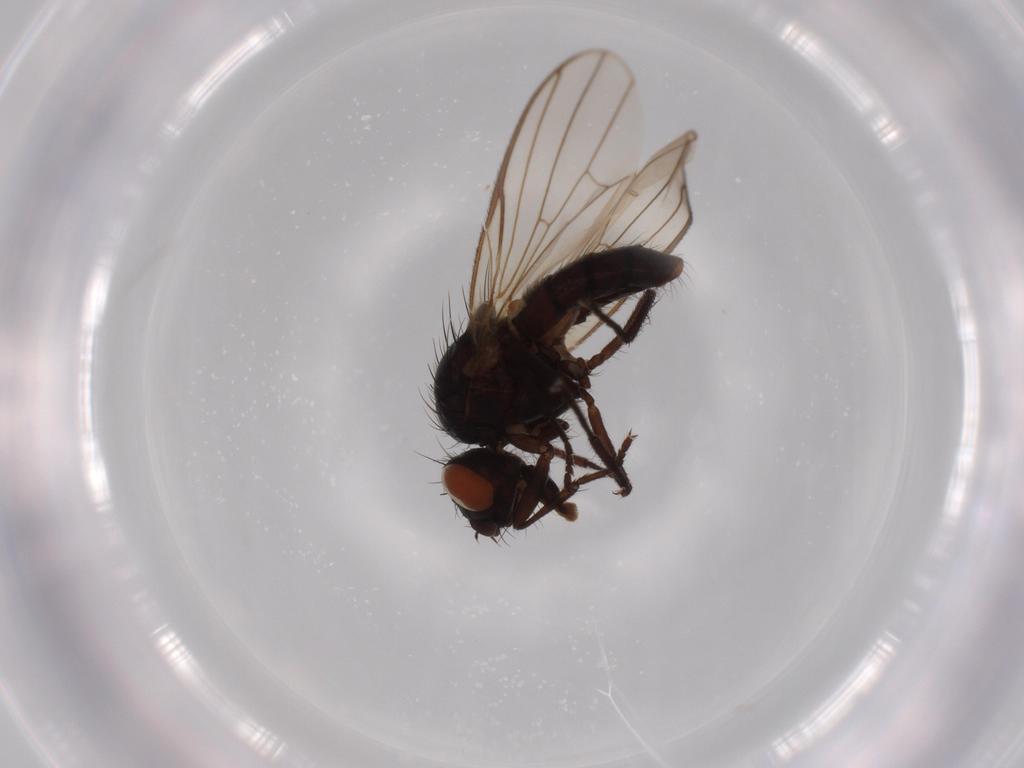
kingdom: Animalia
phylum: Arthropoda
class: Insecta
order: Diptera
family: Anthomyiidae
